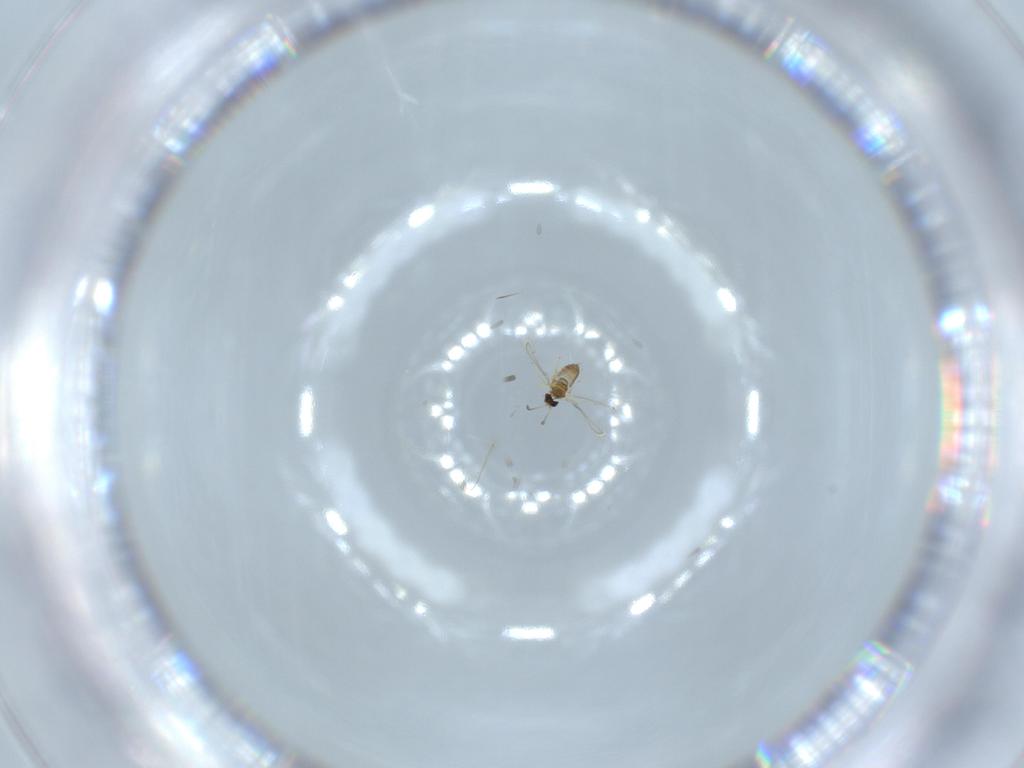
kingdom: Animalia
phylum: Arthropoda
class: Insecta
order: Hymenoptera
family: Mymaridae
